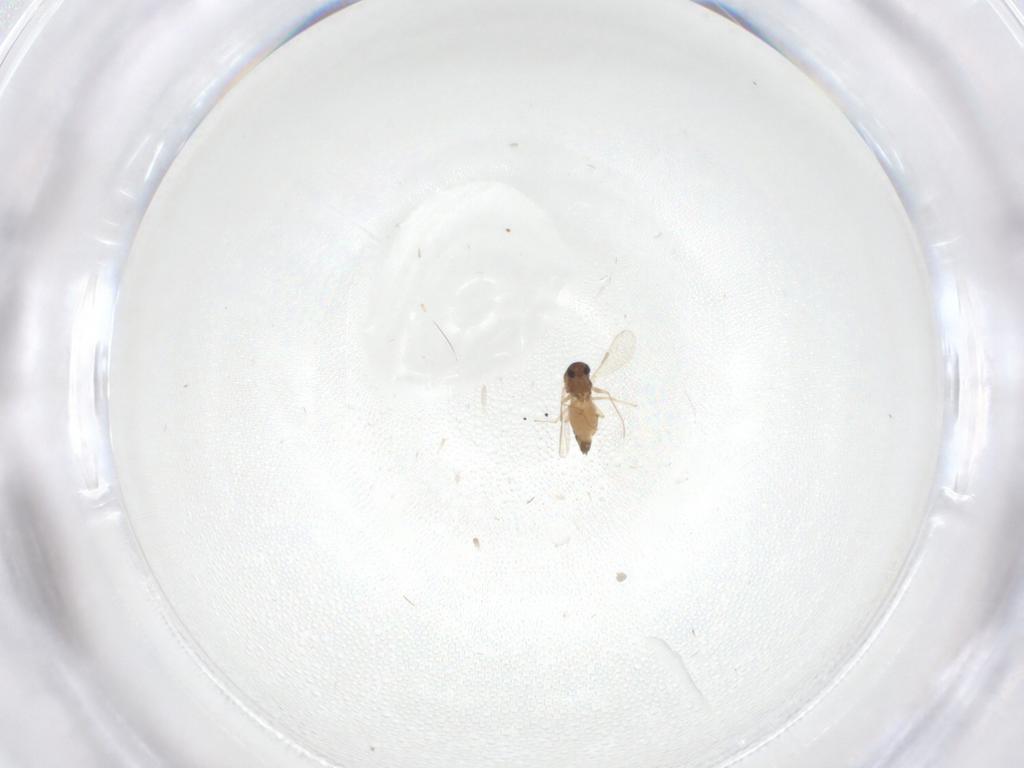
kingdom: Animalia
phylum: Arthropoda
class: Insecta
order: Diptera
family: Chironomidae
